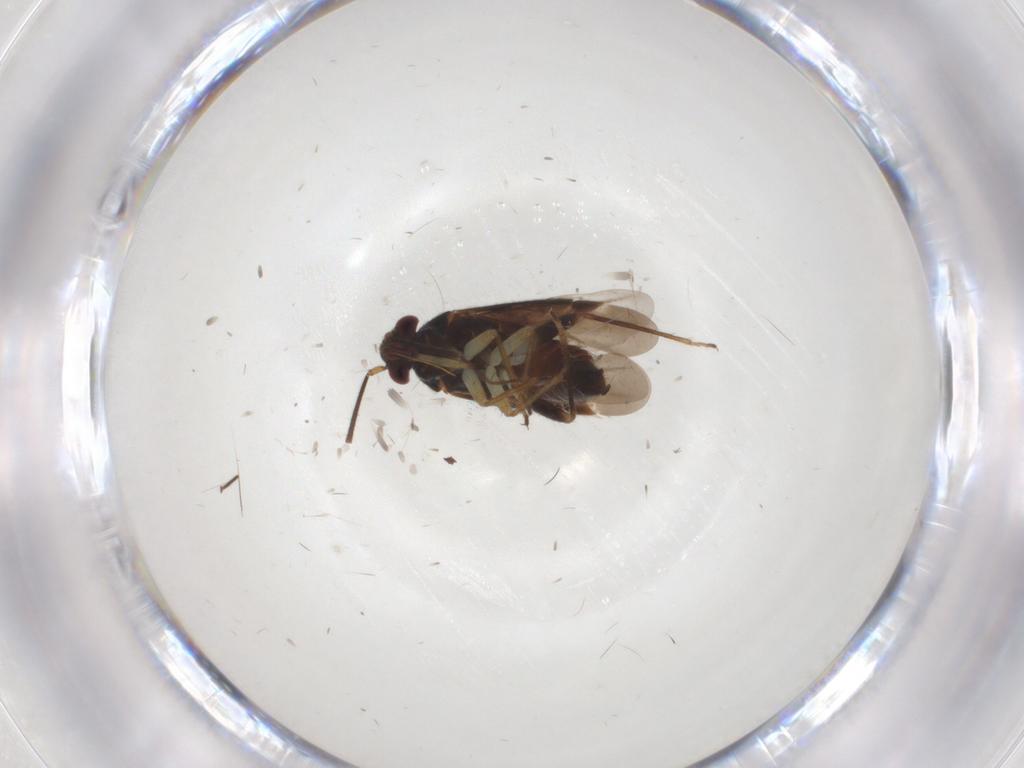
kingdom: Animalia
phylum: Arthropoda
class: Insecta
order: Hemiptera
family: Miridae
